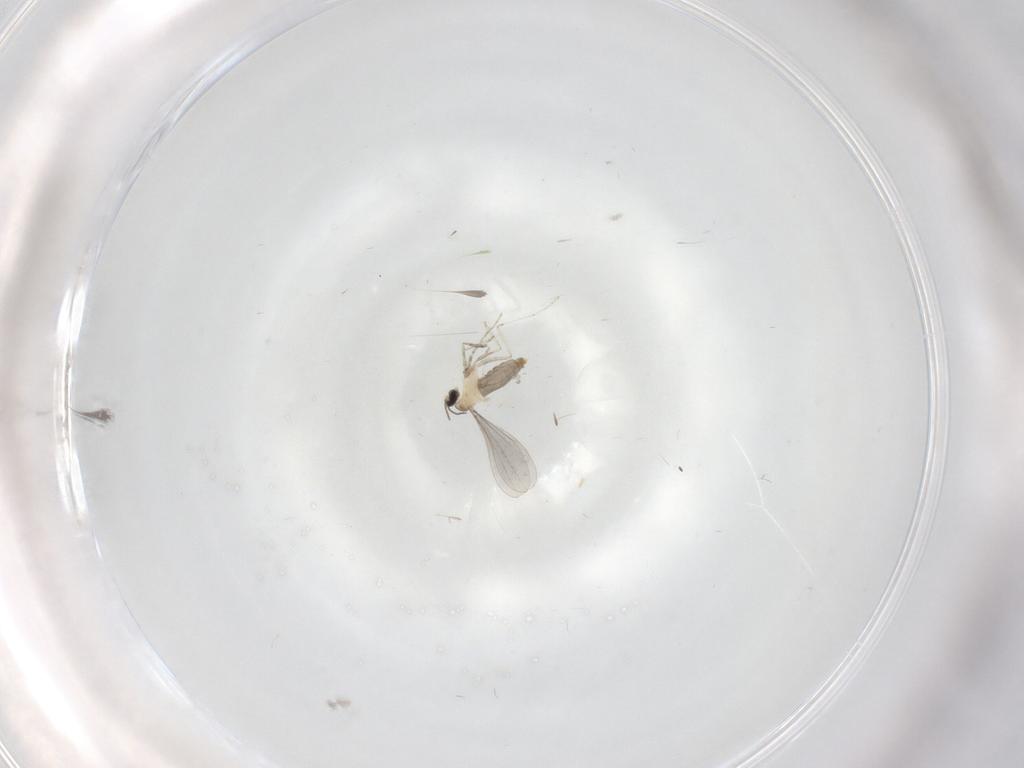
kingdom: Animalia
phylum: Arthropoda
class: Insecta
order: Diptera
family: Cecidomyiidae
